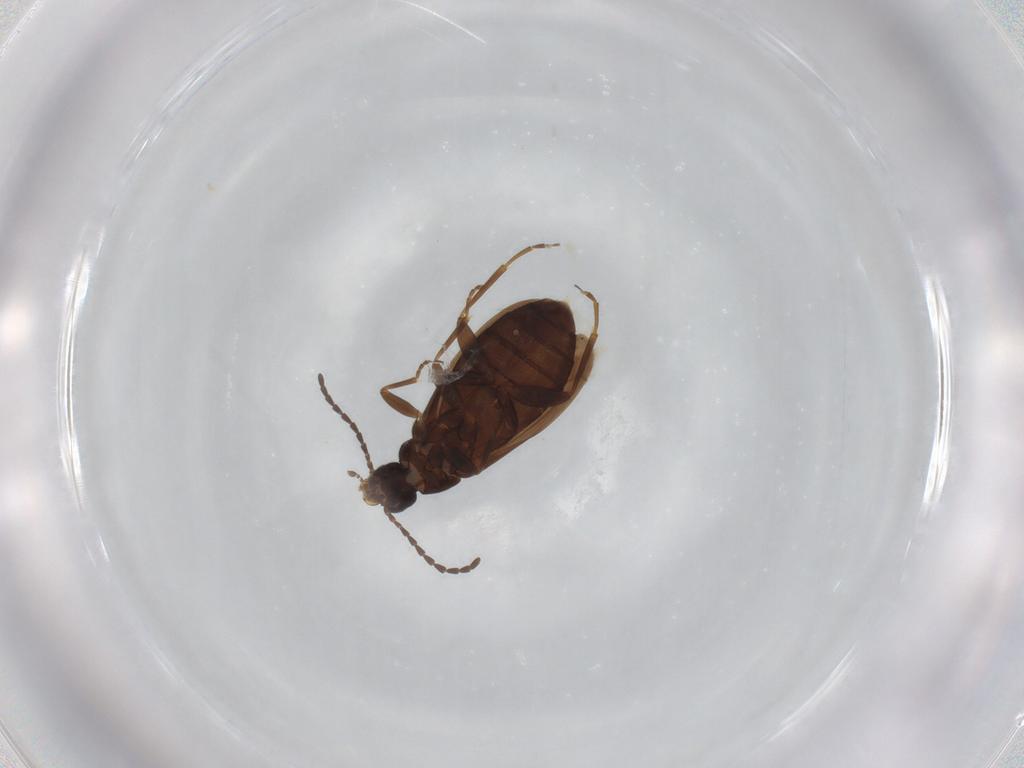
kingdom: Animalia
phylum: Arthropoda
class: Insecta
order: Coleoptera
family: Scraptiidae
